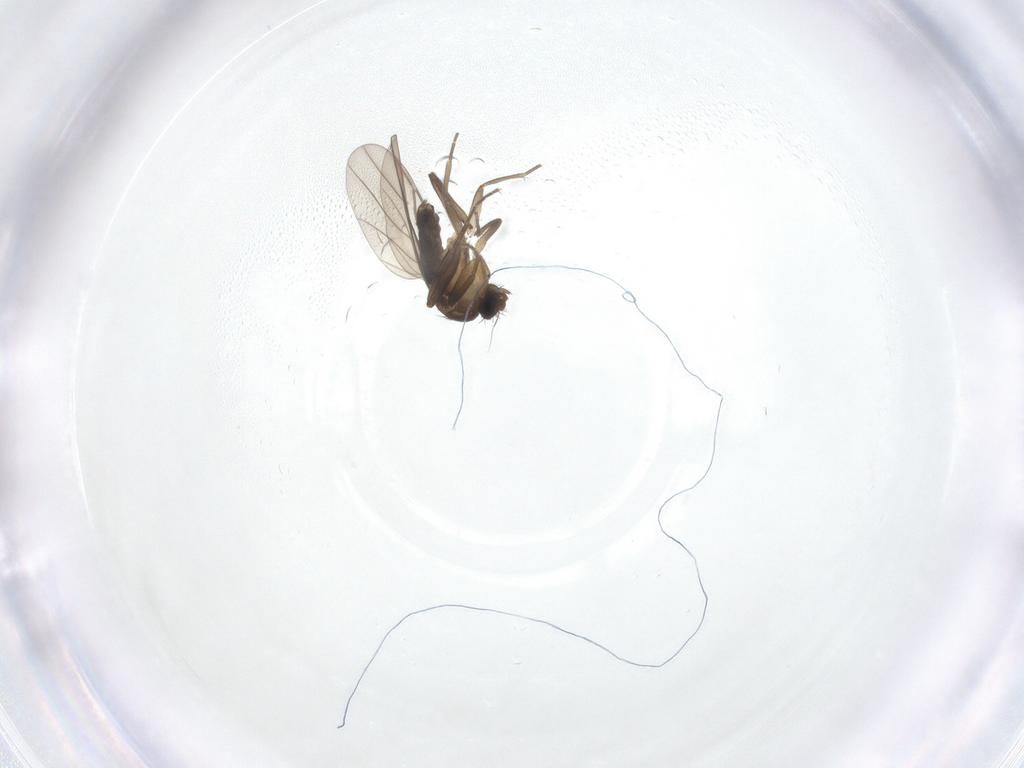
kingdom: Animalia
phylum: Arthropoda
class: Insecta
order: Diptera
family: Phoridae
